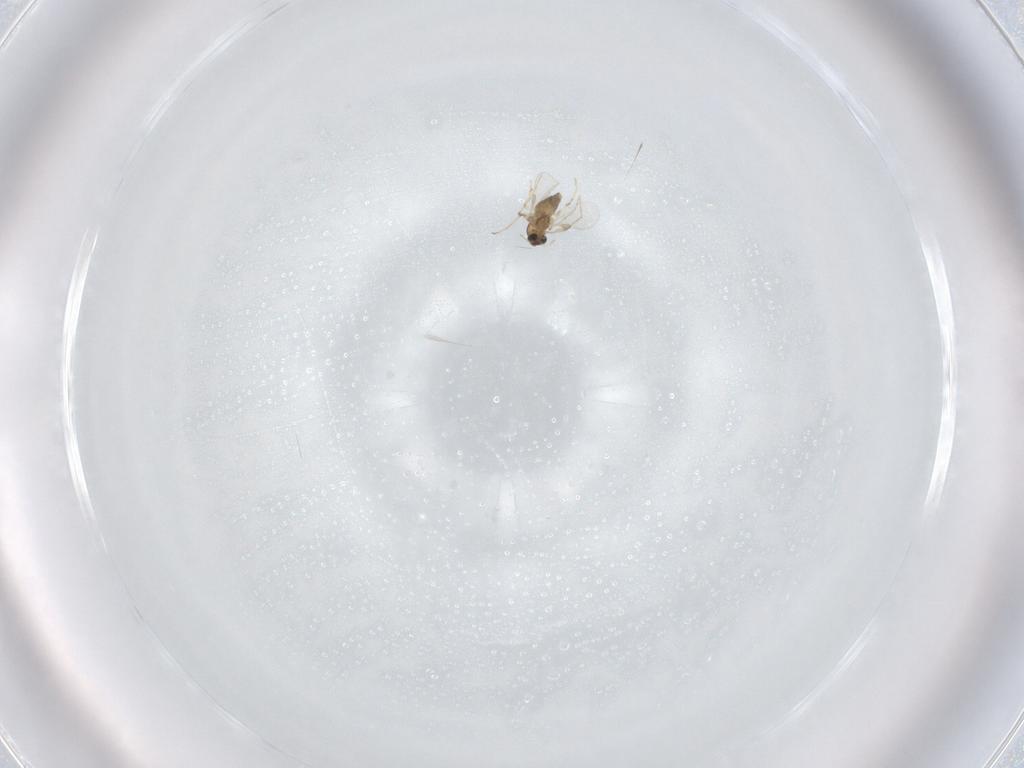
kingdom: Animalia
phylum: Arthropoda
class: Insecta
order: Diptera
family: Chironomidae
